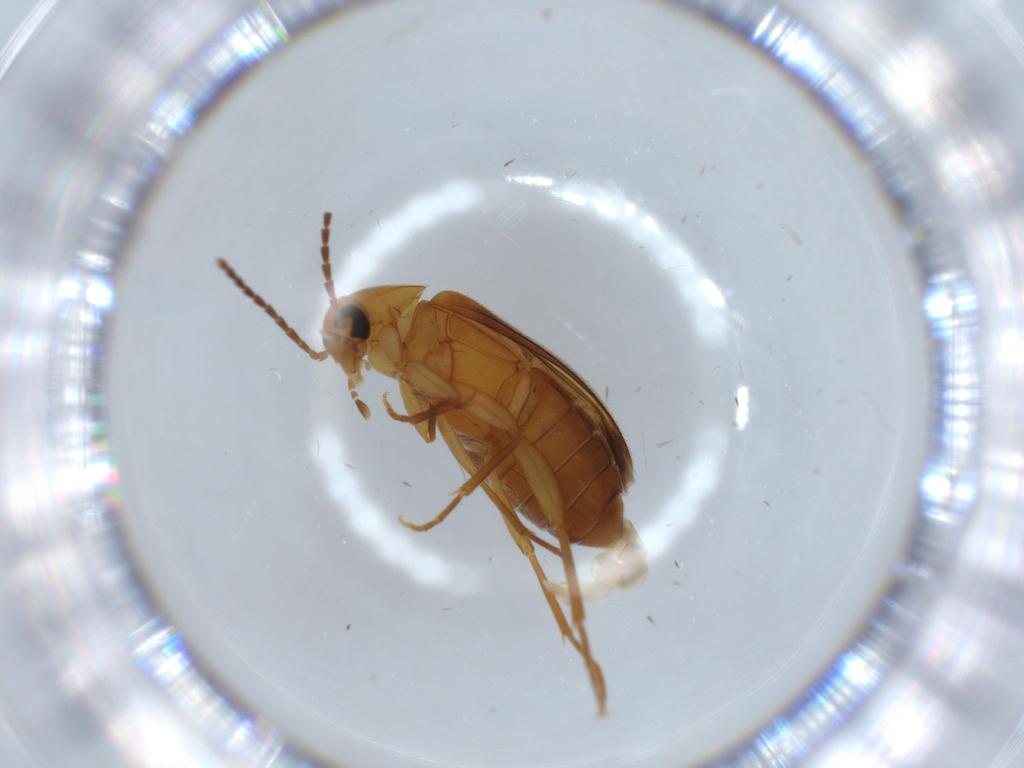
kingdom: Animalia
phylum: Arthropoda
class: Insecta
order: Coleoptera
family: Scraptiidae
